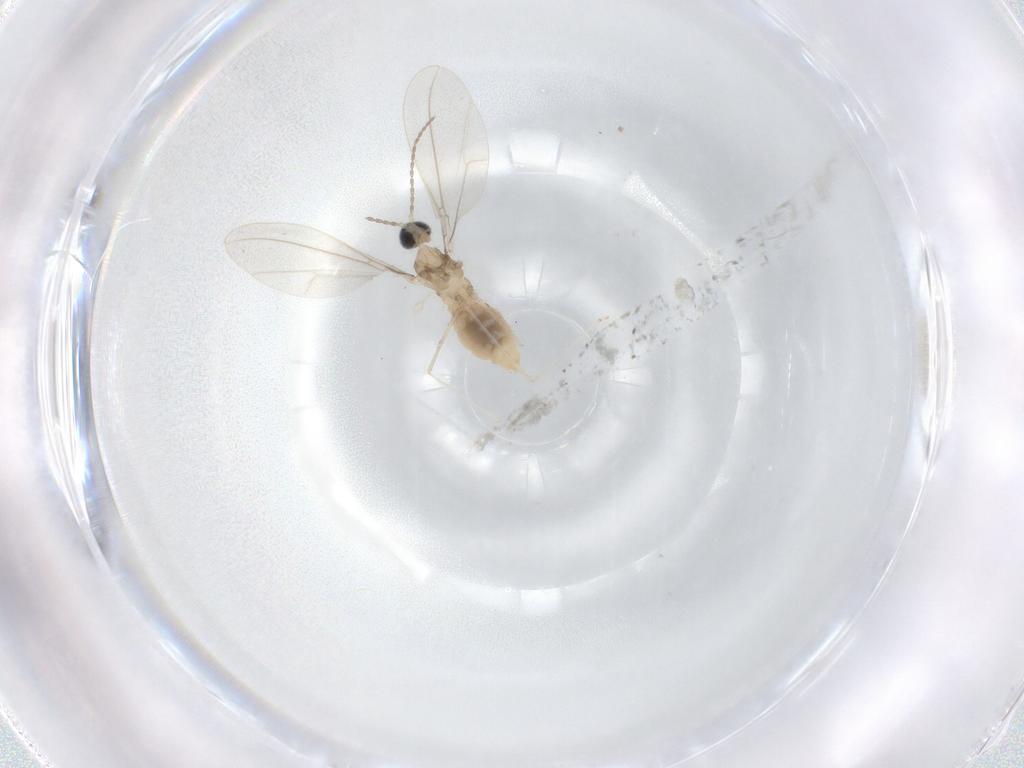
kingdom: Animalia
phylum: Arthropoda
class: Insecta
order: Diptera
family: Cecidomyiidae
